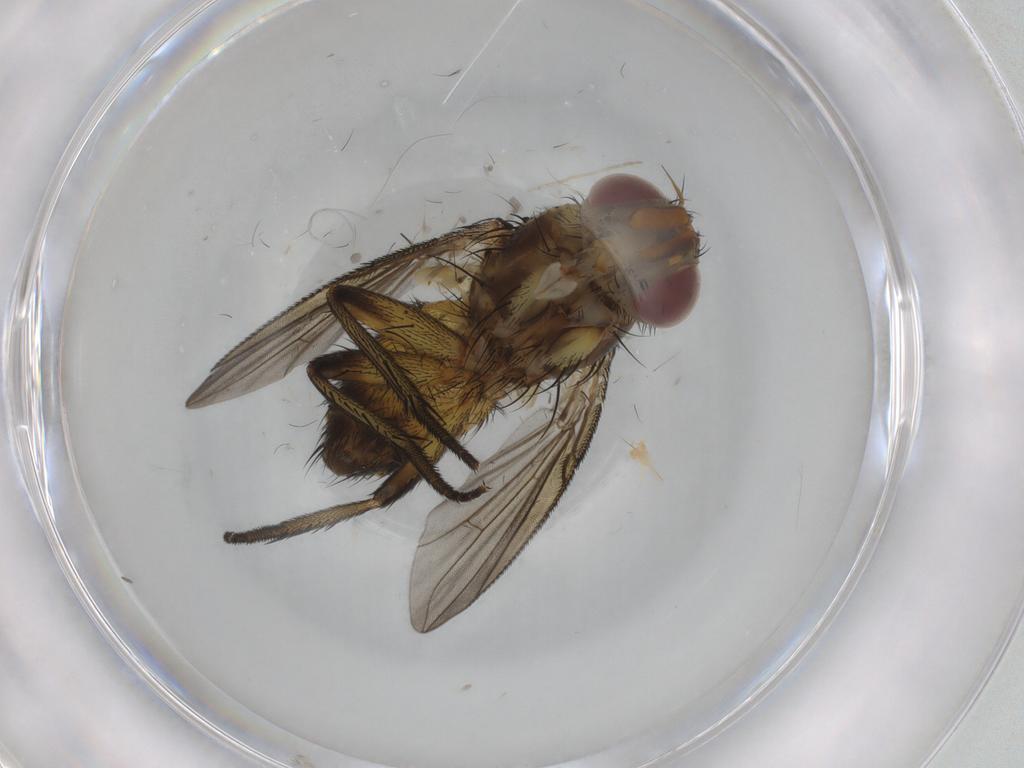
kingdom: Animalia
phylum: Arthropoda
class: Insecta
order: Diptera
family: Tachinidae
